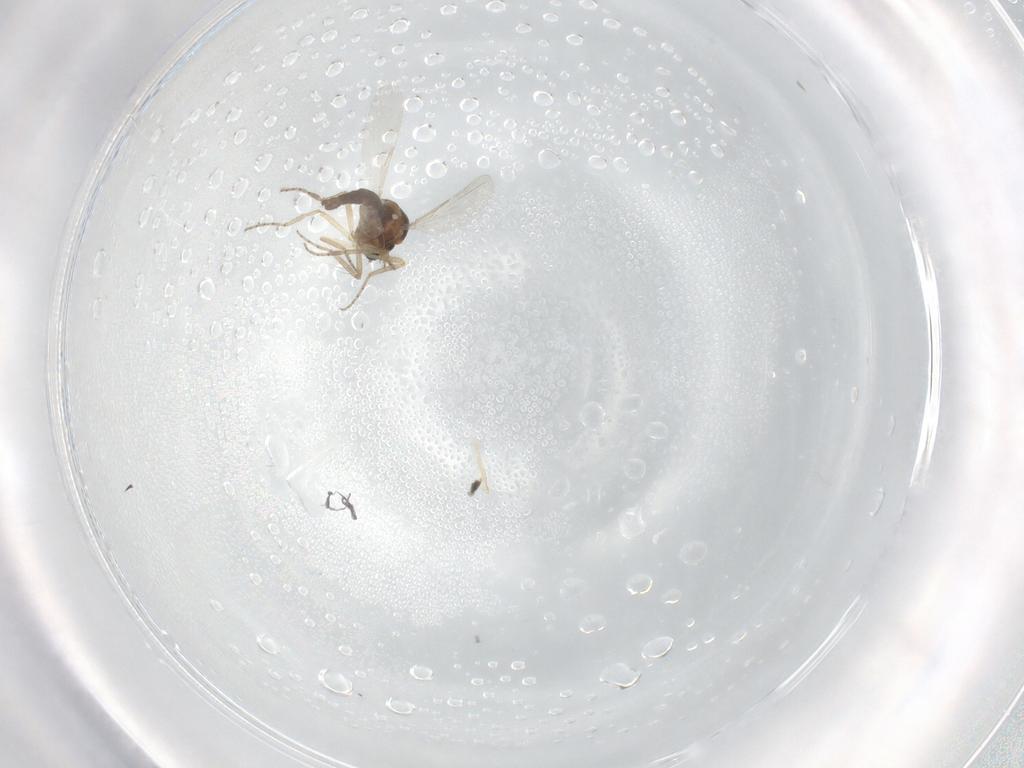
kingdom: Animalia
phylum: Arthropoda
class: Insecta
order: Diptera
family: Ceratopogonidae
